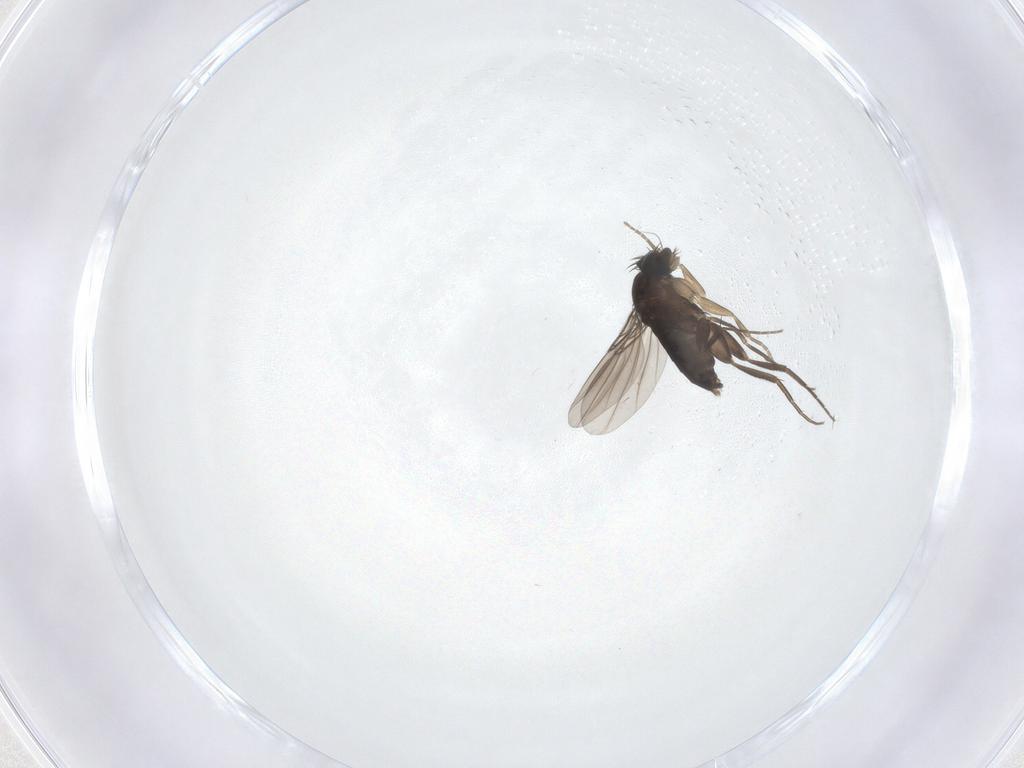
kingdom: Animalia
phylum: Arthropoda
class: Insecta
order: Diptera
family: Phoridae
